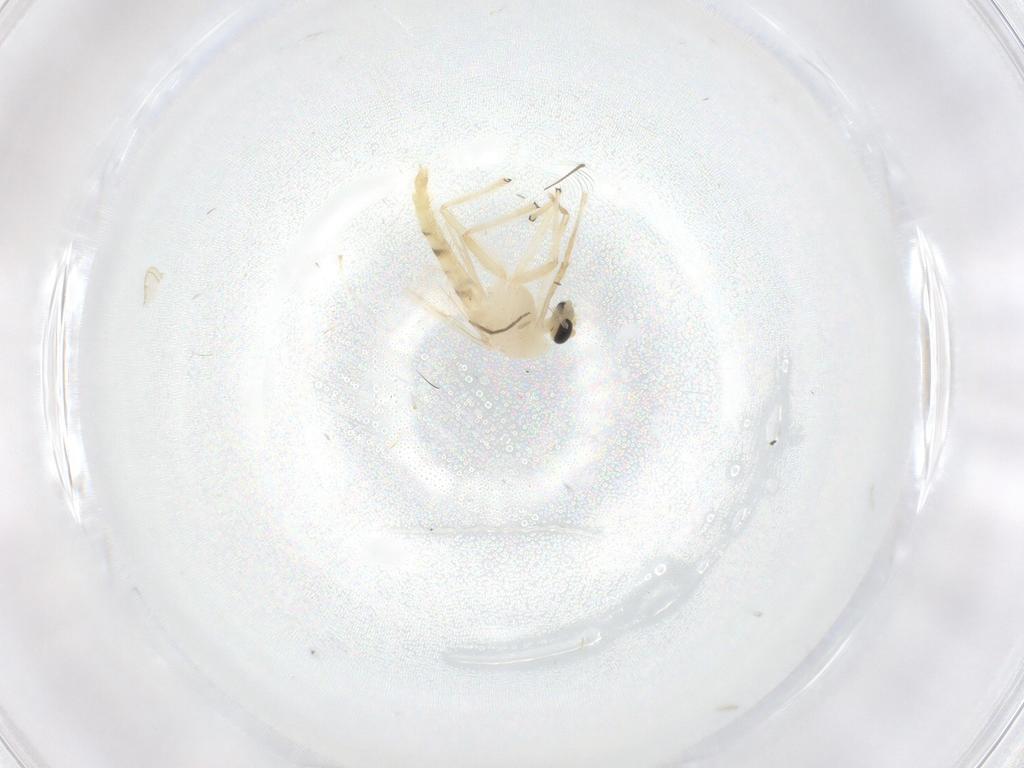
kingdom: Animalia
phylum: Arthropoda
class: Insecta
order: Diptera
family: Chironomidae
